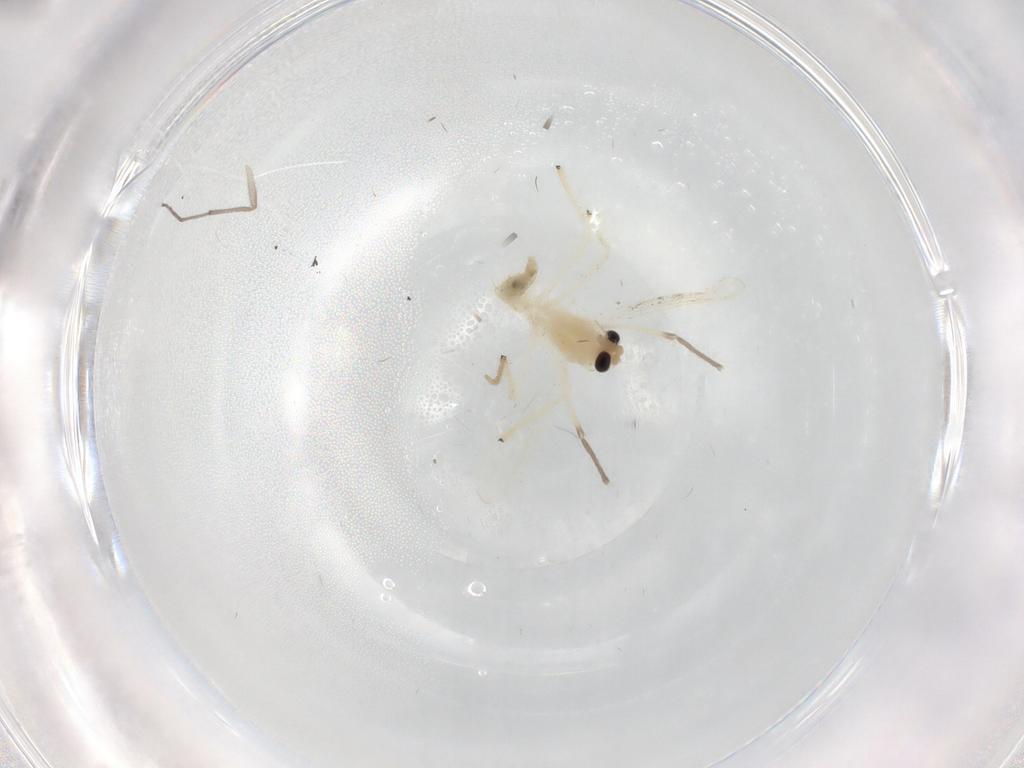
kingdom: Animalia
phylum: Arthropoda
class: Insecta
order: Diptera
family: Chironomidae
